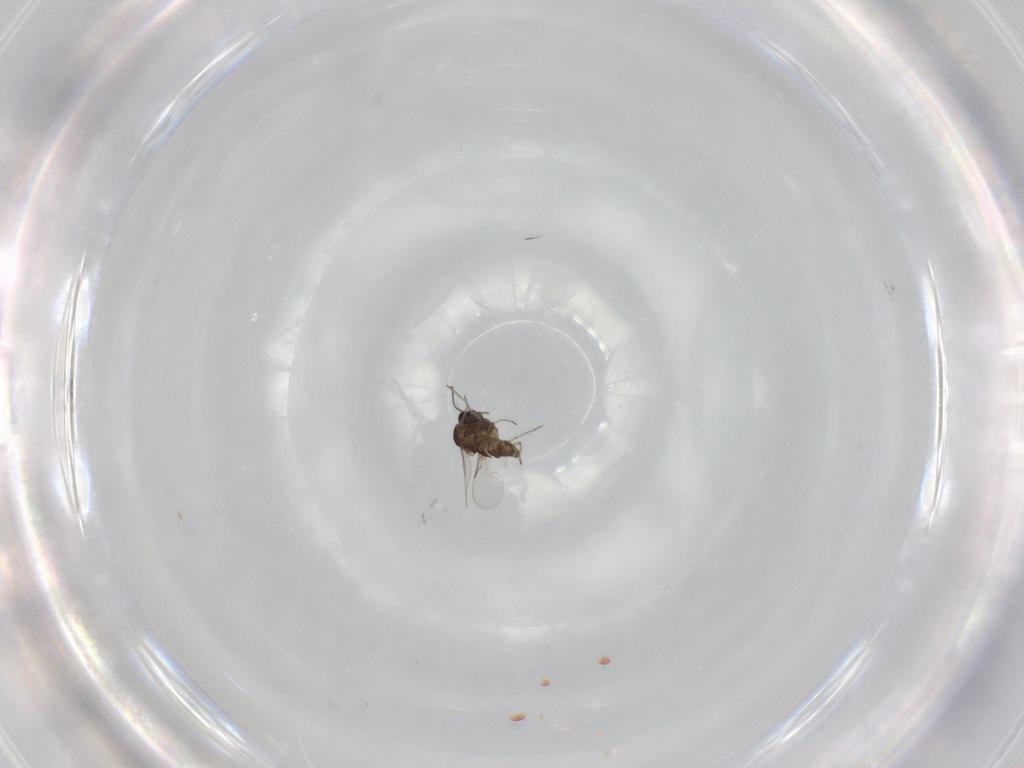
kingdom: Animalia
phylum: Arthropoda
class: Insecta
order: Diptera
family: Ceratopogonidae
